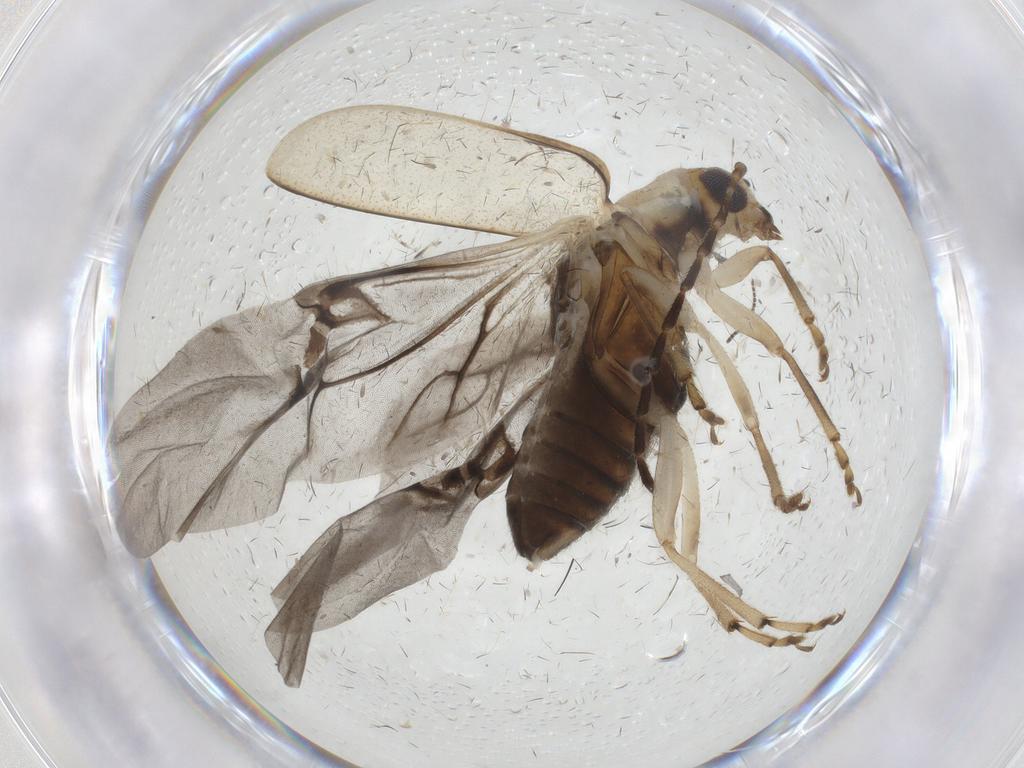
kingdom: Animalia
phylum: Arthropoda
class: Insecta
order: Coleoptera
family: Chrysomelidae
